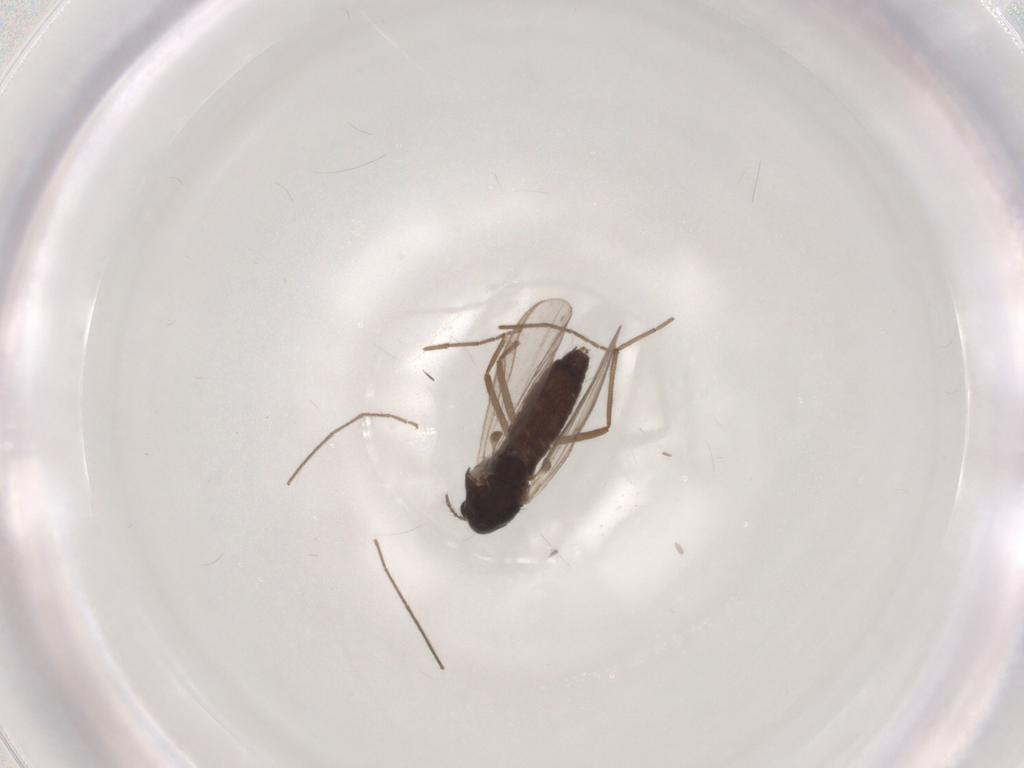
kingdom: Animalia
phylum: Arthropoda
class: Insecta
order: Diptera
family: Chironomidae
